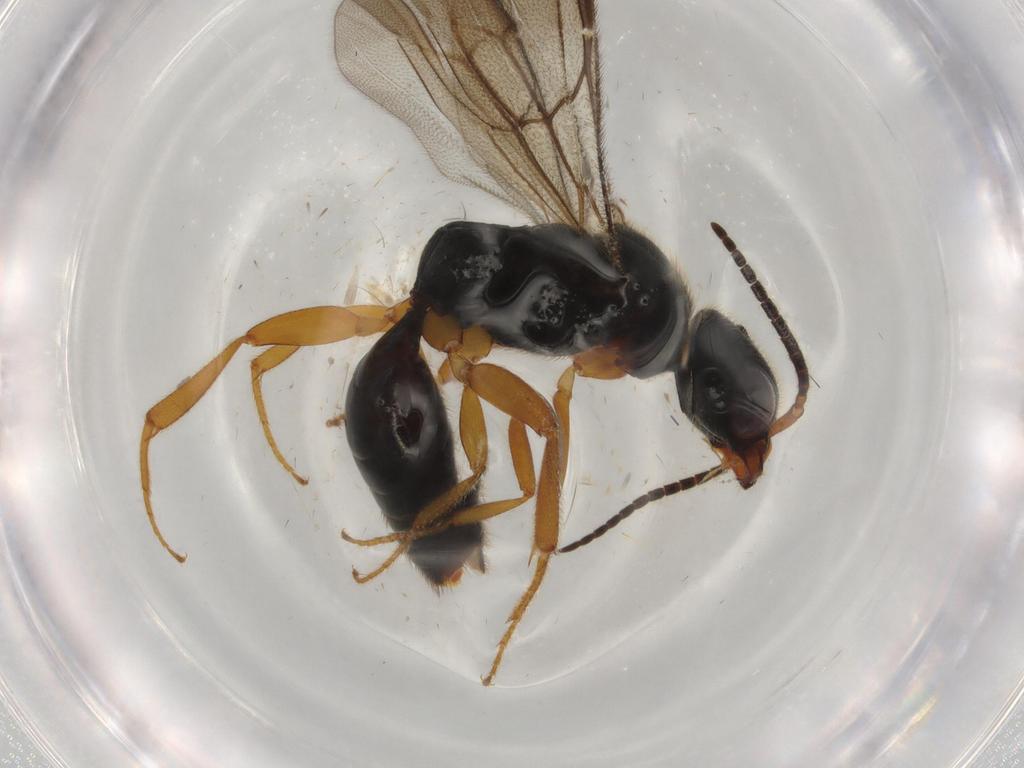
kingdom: Animalia
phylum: Arthropoda
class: Insecta
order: Hymenoptera
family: Bethylidae
